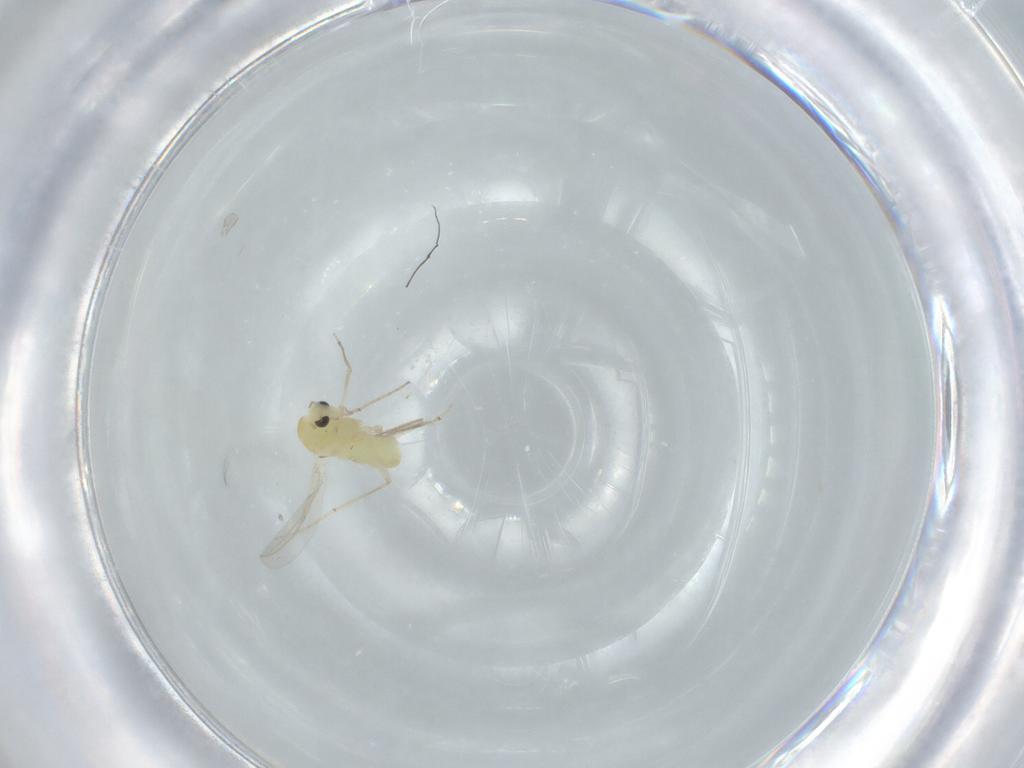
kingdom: Animalia
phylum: Arthropoda
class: Insecta
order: Diptera
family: Chironomidae
